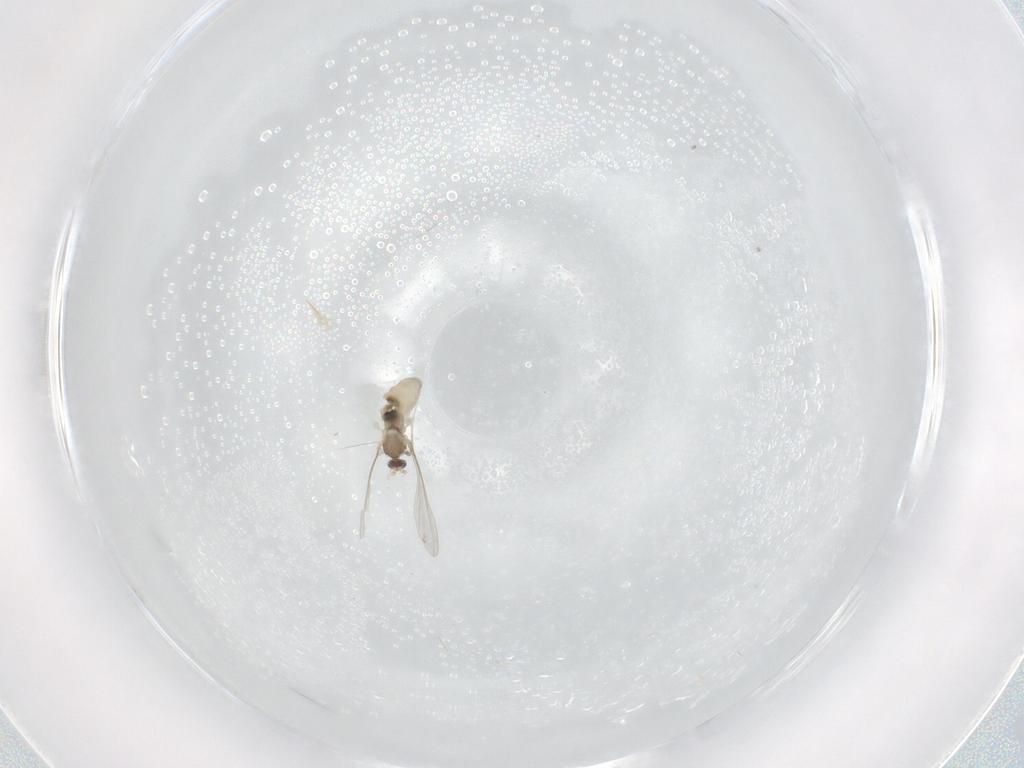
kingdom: Animalia
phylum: Arthropoda
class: Insecta
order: Diptera
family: Cecidomyiidae
